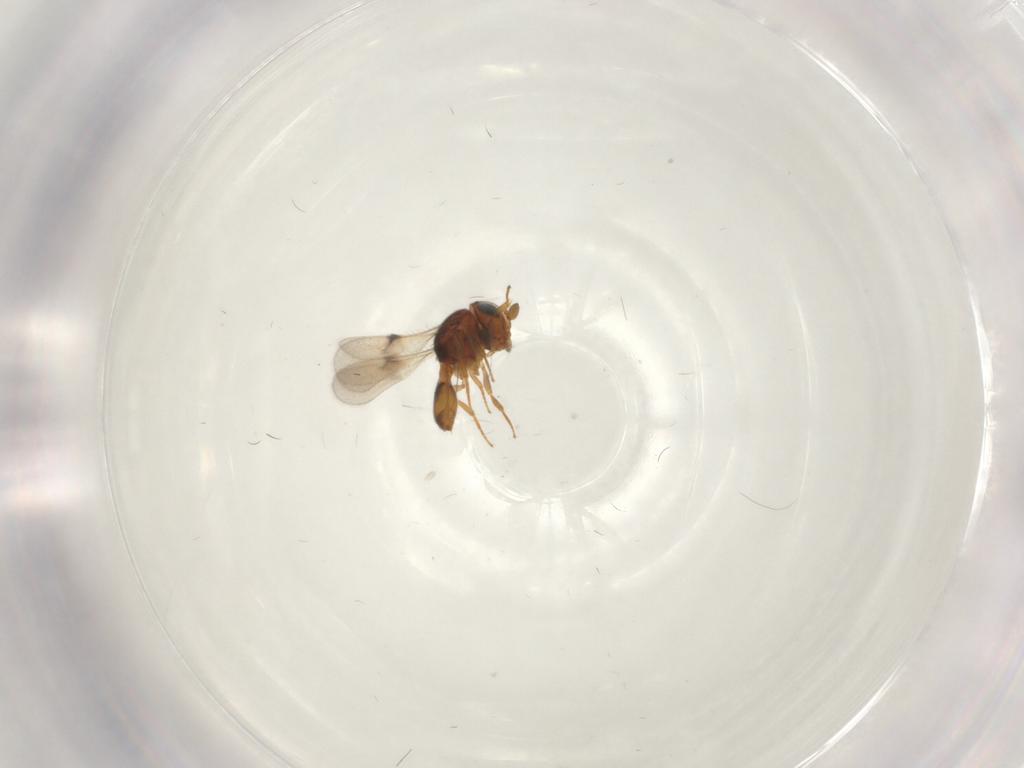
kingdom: Animalia
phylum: Arthropoda
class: Insecta
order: Hymenoptera
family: Scelionidae
